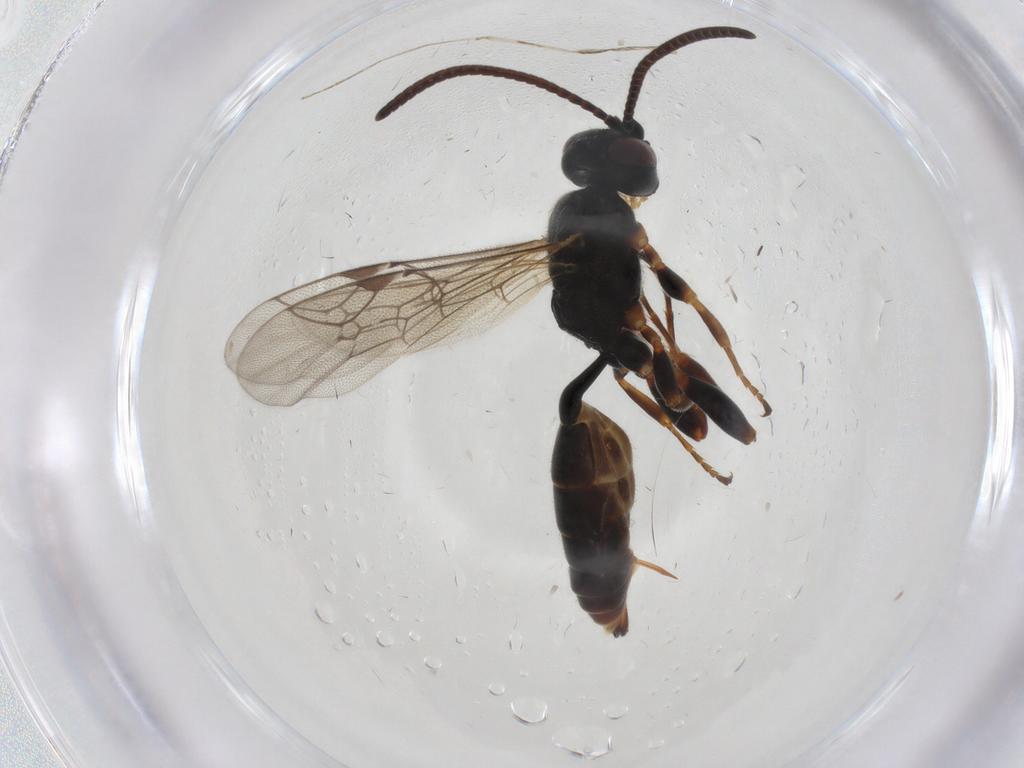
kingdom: Animalia
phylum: Arthropoda
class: Insecta
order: Hymenoptera
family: Ichneumonidae
